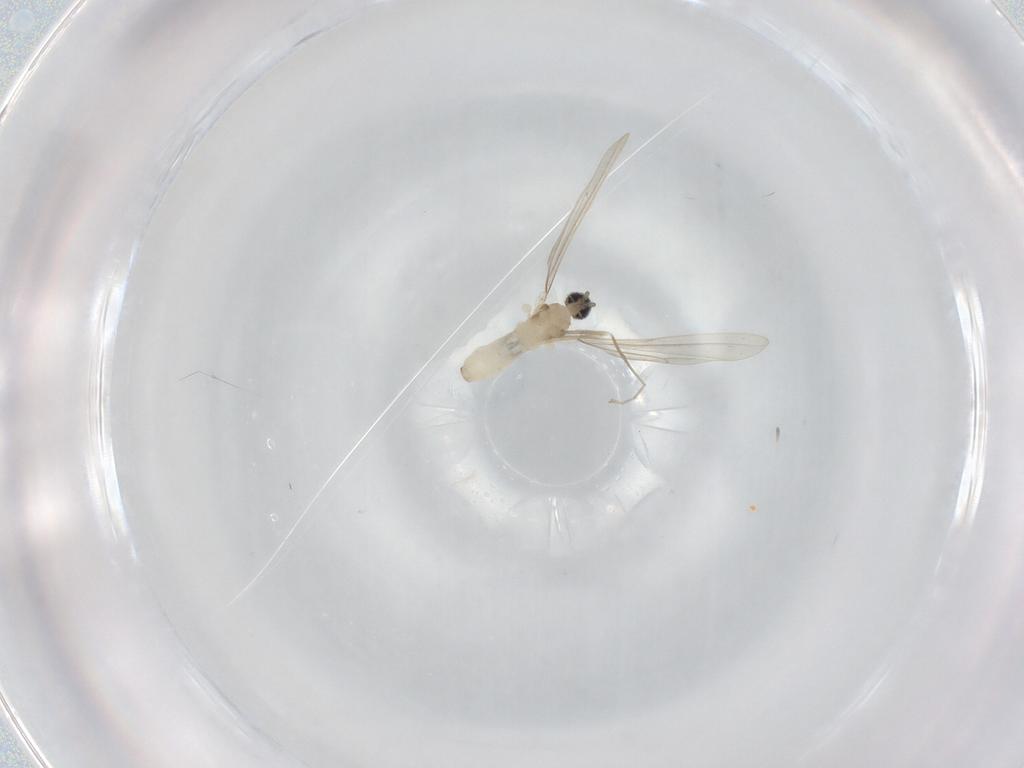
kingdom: Animalia
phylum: Arthropoda
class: Insecta
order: Diptera
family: Cecidomyiidae
